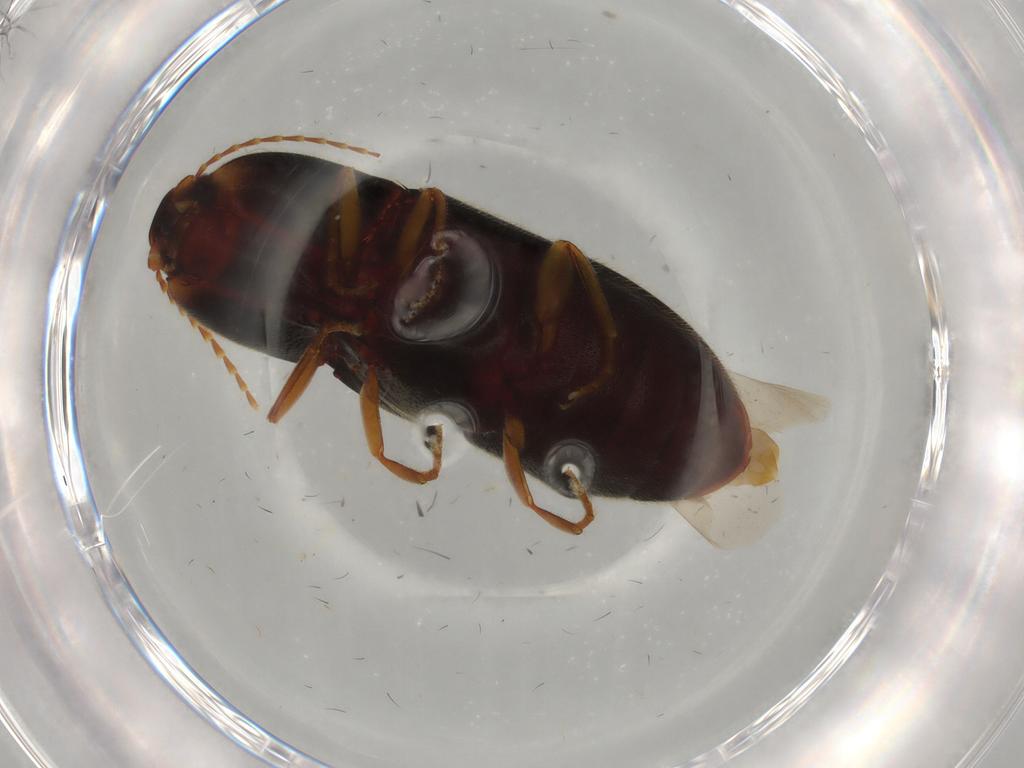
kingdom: Animalia
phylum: Arthropoda
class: Insecta
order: Coleoptera
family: Elateridae
